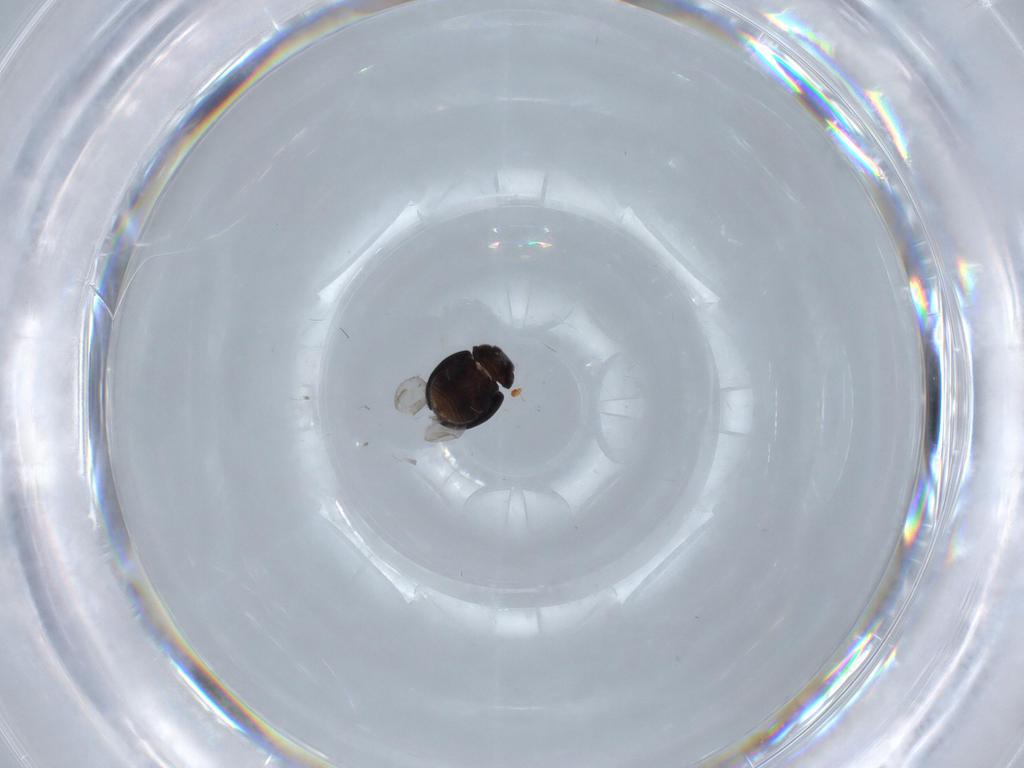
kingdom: Animalia
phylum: Arthropoda
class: Insecta
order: Coleoptera
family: Coccinellidae
